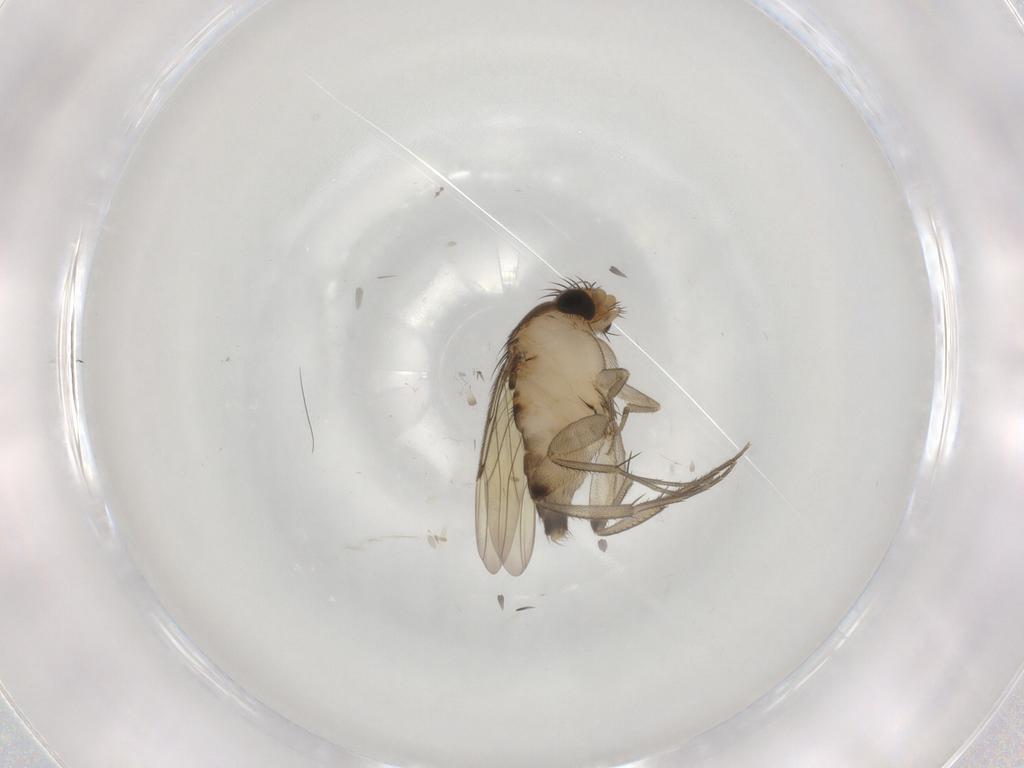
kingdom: Animalia
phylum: Arthropoda
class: Insecta
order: Diptera
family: Phoridae
